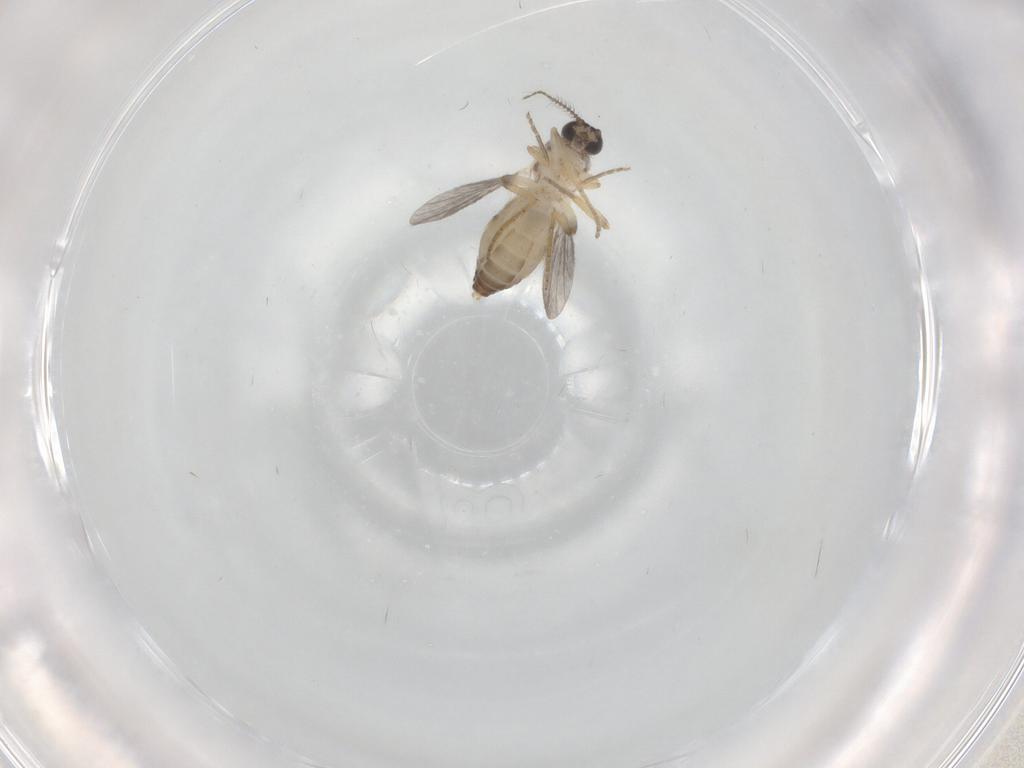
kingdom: Animalia
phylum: Arthropoda
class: Insecta
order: Diptera
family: Ceratopogonidae
